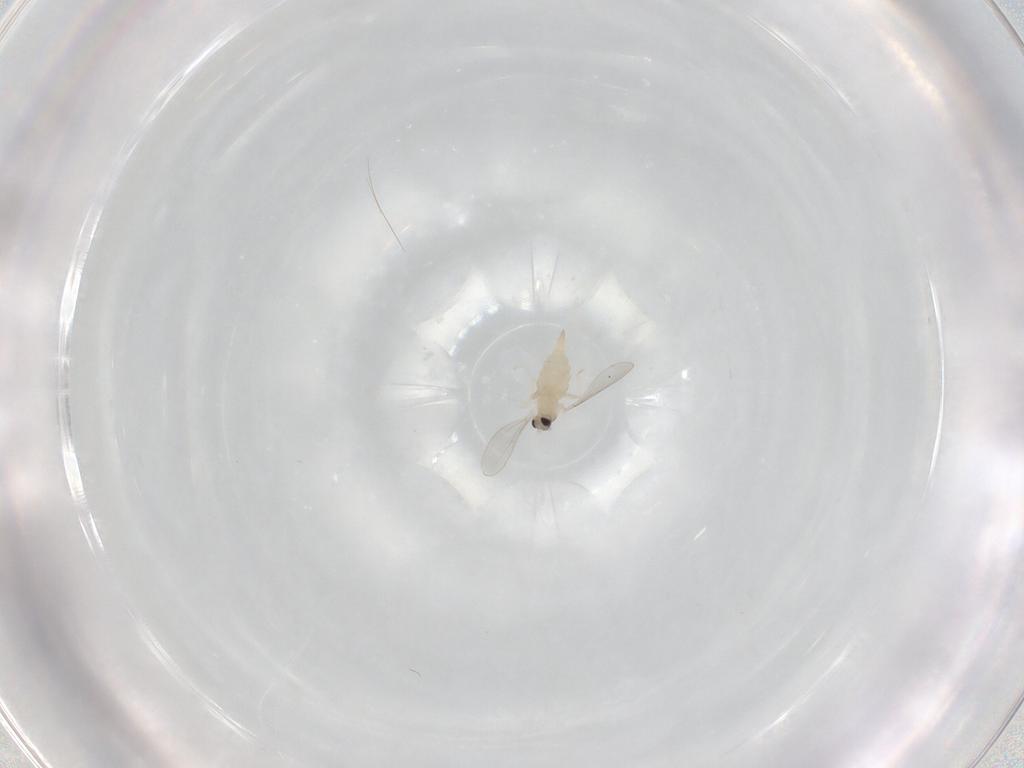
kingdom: Animalia
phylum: Arthropoda
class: Insecta
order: Diptera
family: Cecidomyiidae
